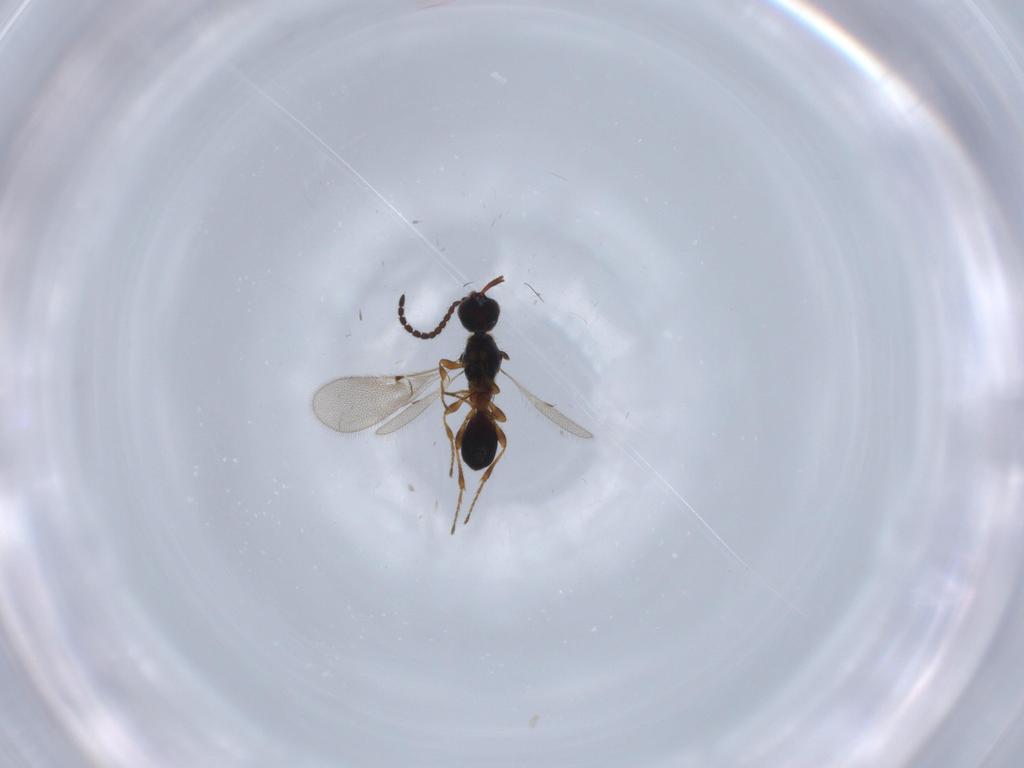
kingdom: Animalia
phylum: Arthropoda
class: Insecta
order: Hymenoptera
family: Diapriidae
